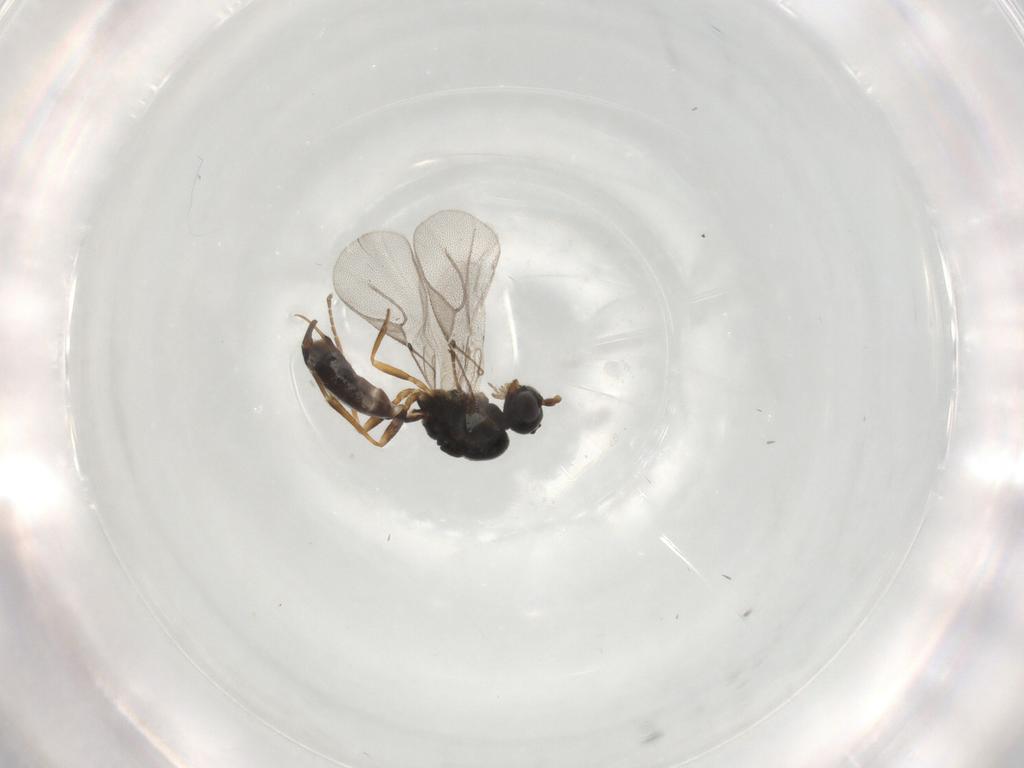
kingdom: Animalia
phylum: Arthropoda
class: Insecta
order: Hymenoptera
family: Braconidae
